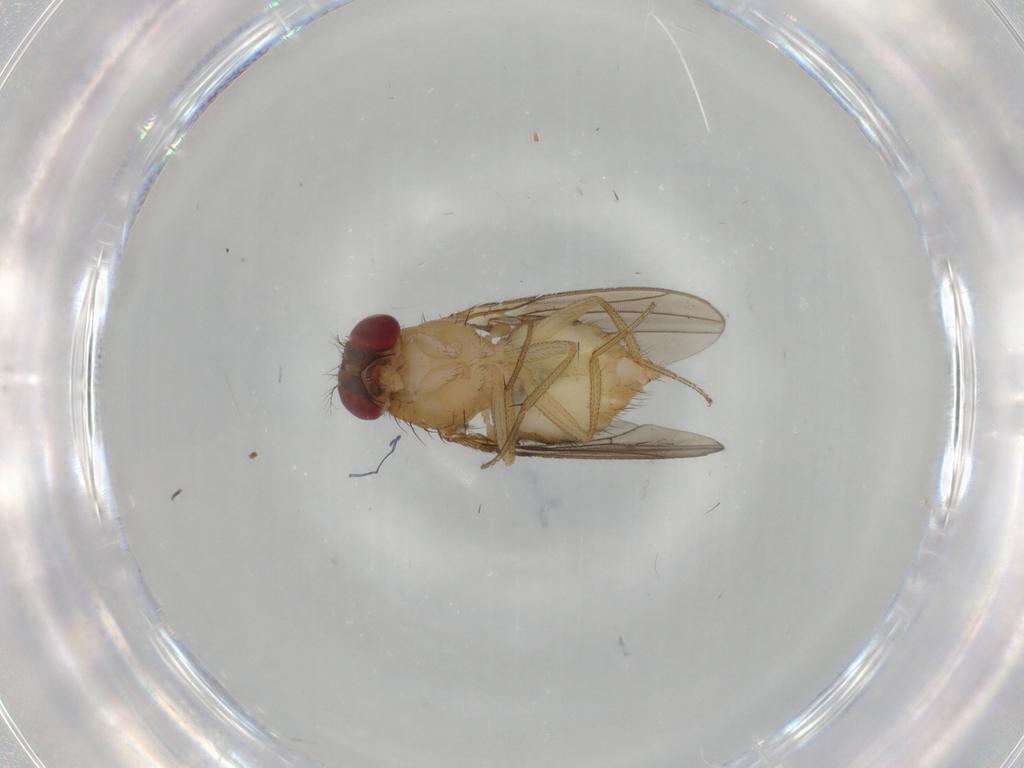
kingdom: Animalia
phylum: Arthropoda
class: Insecta
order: Diptera
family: Drosophilidae
